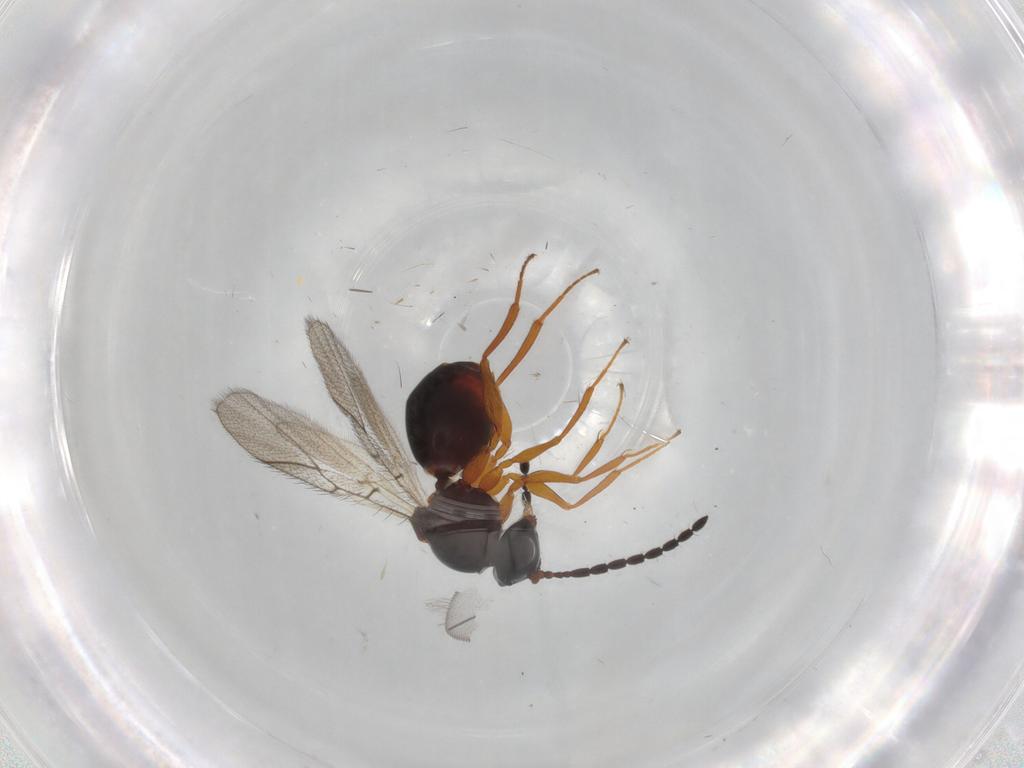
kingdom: Animalia
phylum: Arthropoda
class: Insecta
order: Hymenoptera
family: Figitidae
